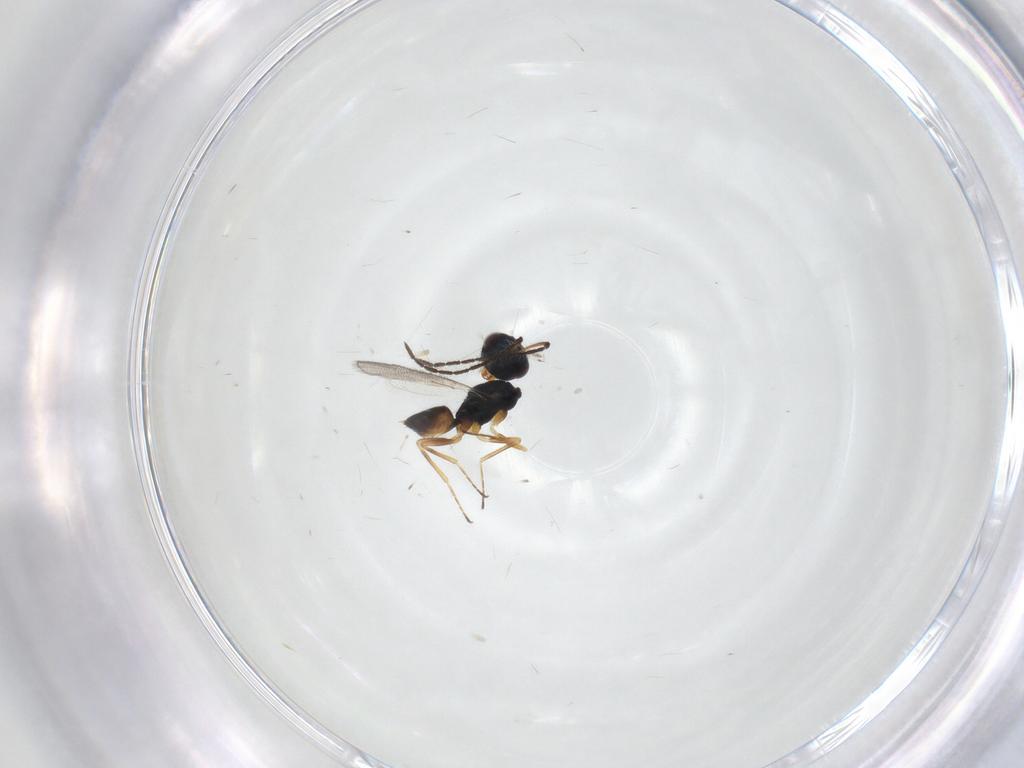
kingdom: Animalia
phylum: Arthropoda
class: Insecta
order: Hymenoptera
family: Pteromalidae
